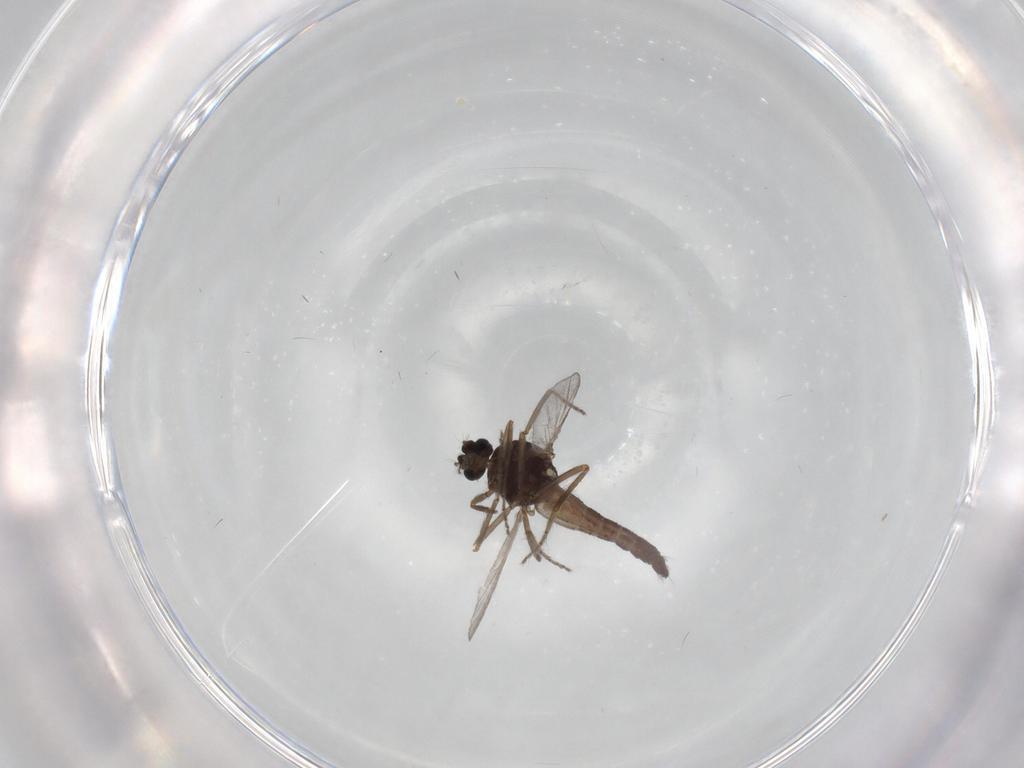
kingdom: Animalia
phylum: Arthropoda
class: Insecta
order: Diptera
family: Ceratopogonidae
